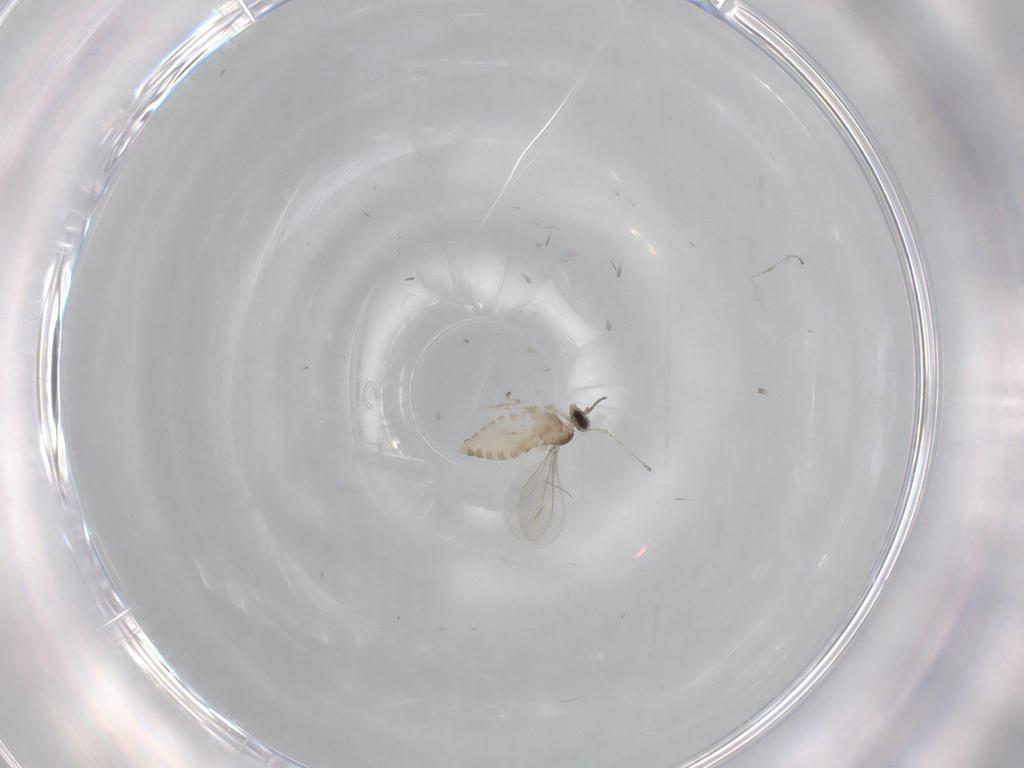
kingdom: Animalia
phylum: Arthropoda
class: Insecta
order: Diptera
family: Cecidomyiidae
